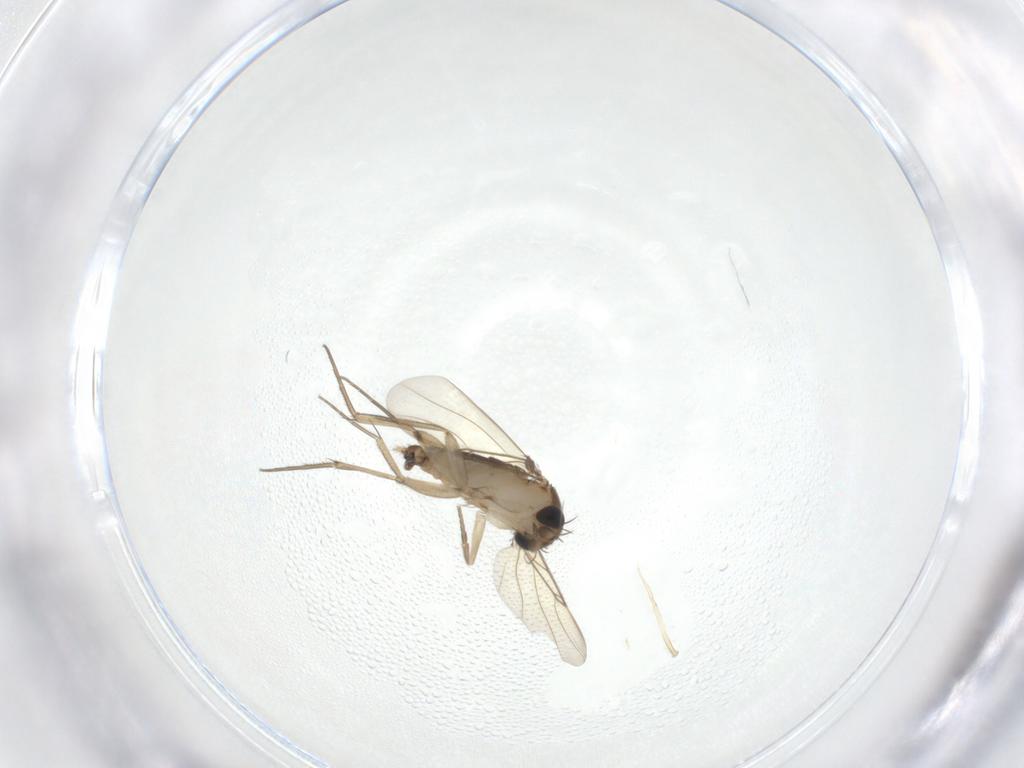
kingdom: Animalia
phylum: Arthropoda
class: Insecta
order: Diptera
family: Phoridae
